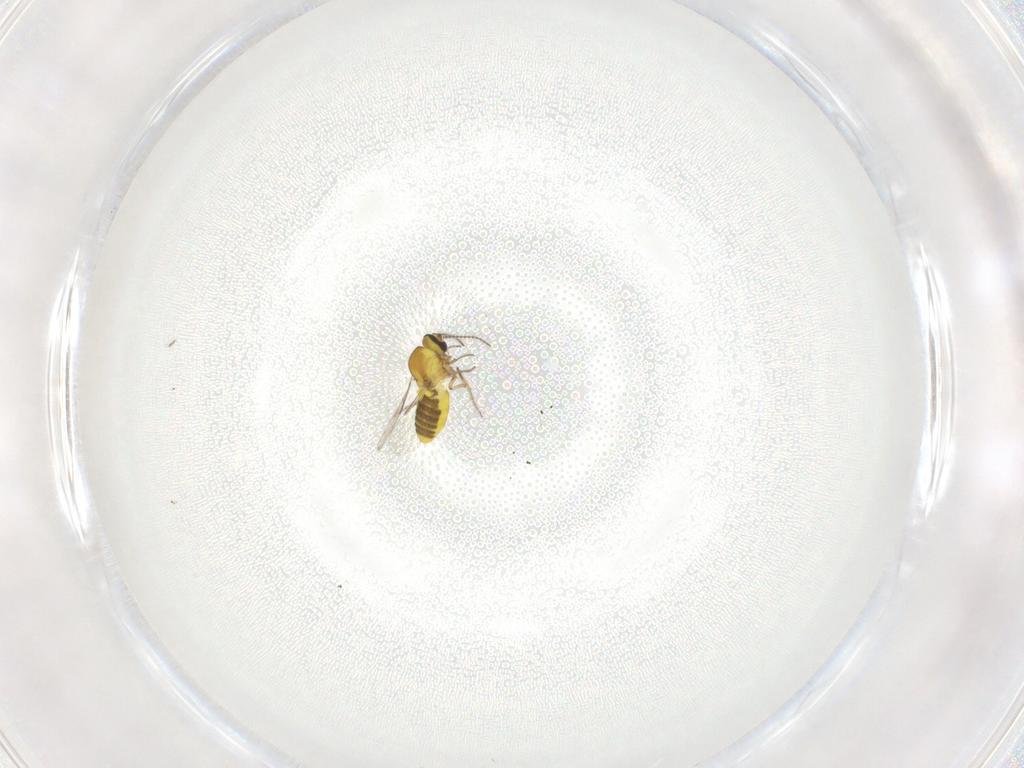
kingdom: Animalia
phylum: Arthropoda
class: Insecta
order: Diptera
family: Ceratopogonidae
